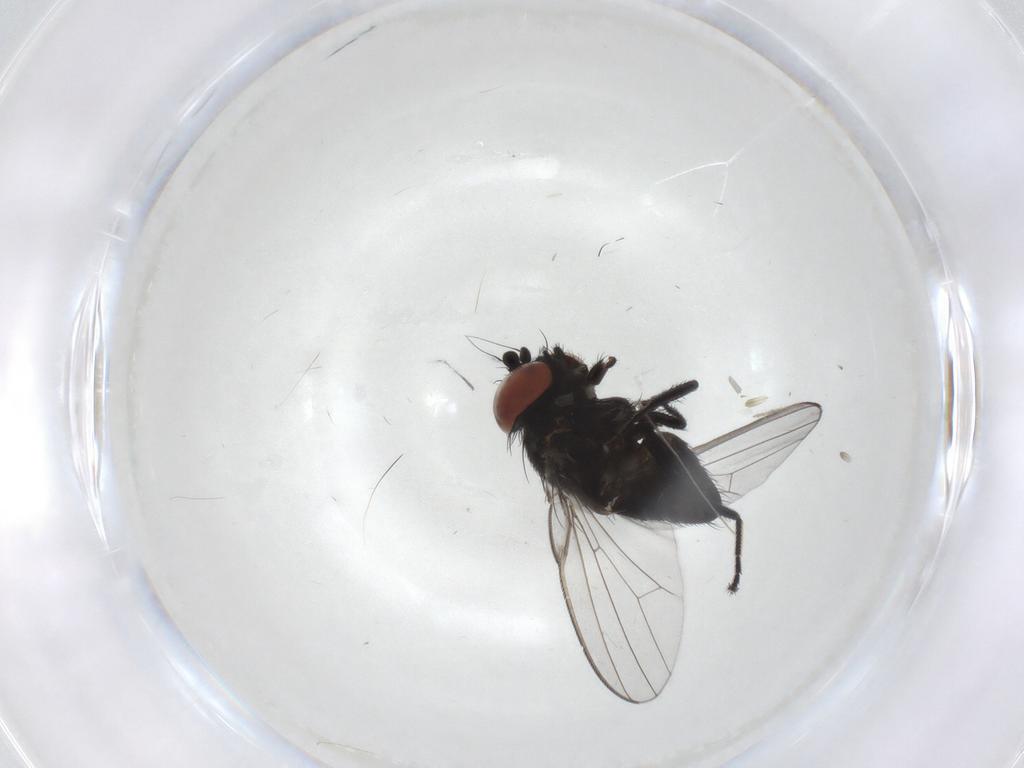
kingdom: Animalia
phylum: Arthropoda
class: Insecta
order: Diptera
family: Milichiidae
